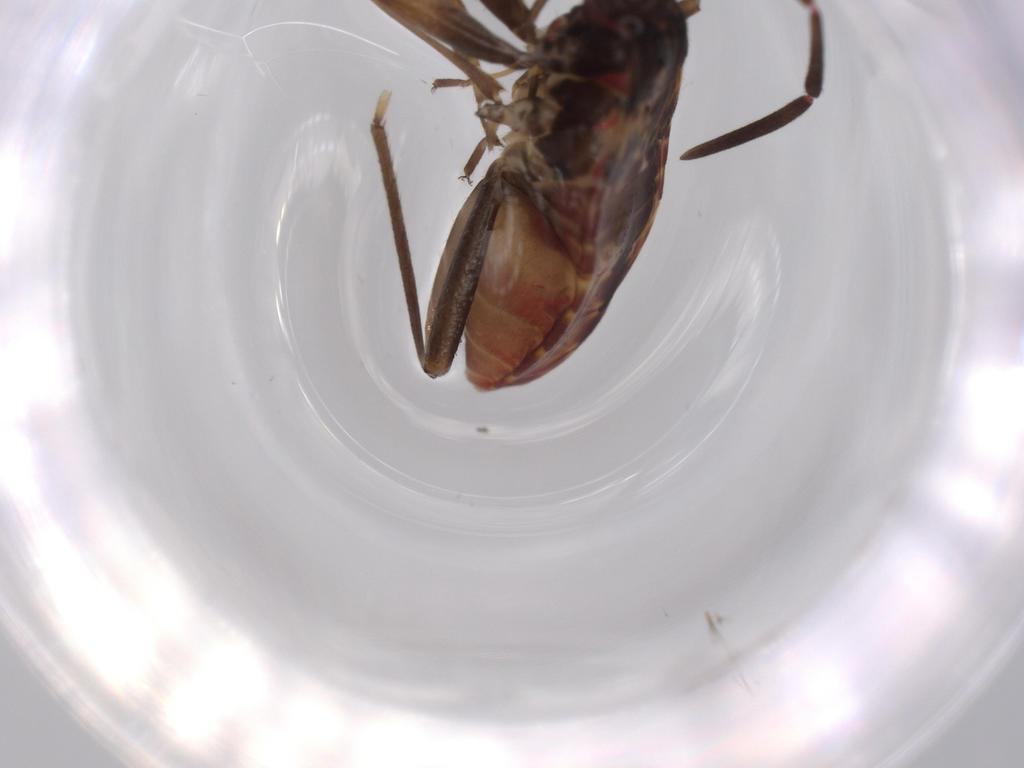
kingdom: Animalia
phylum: Arthropoda
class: Insecta
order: Hemiptera
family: Rhyparochromidae
